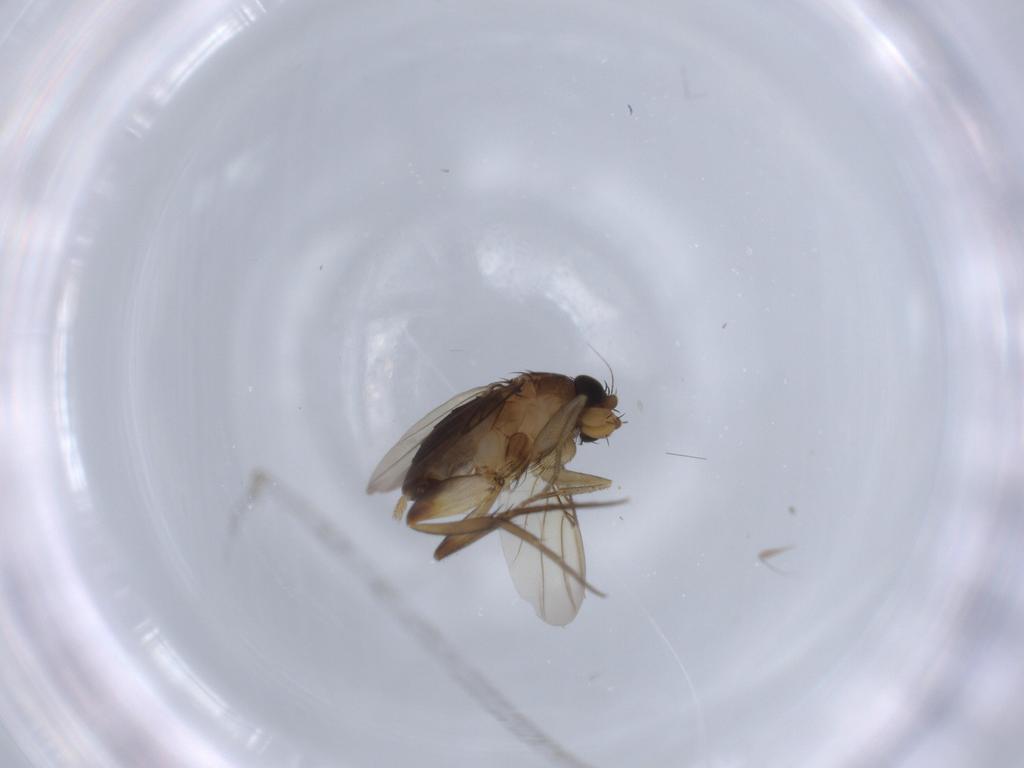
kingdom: Animalia
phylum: Arthropoda
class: Insecta
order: Diptera
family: Phoridae
